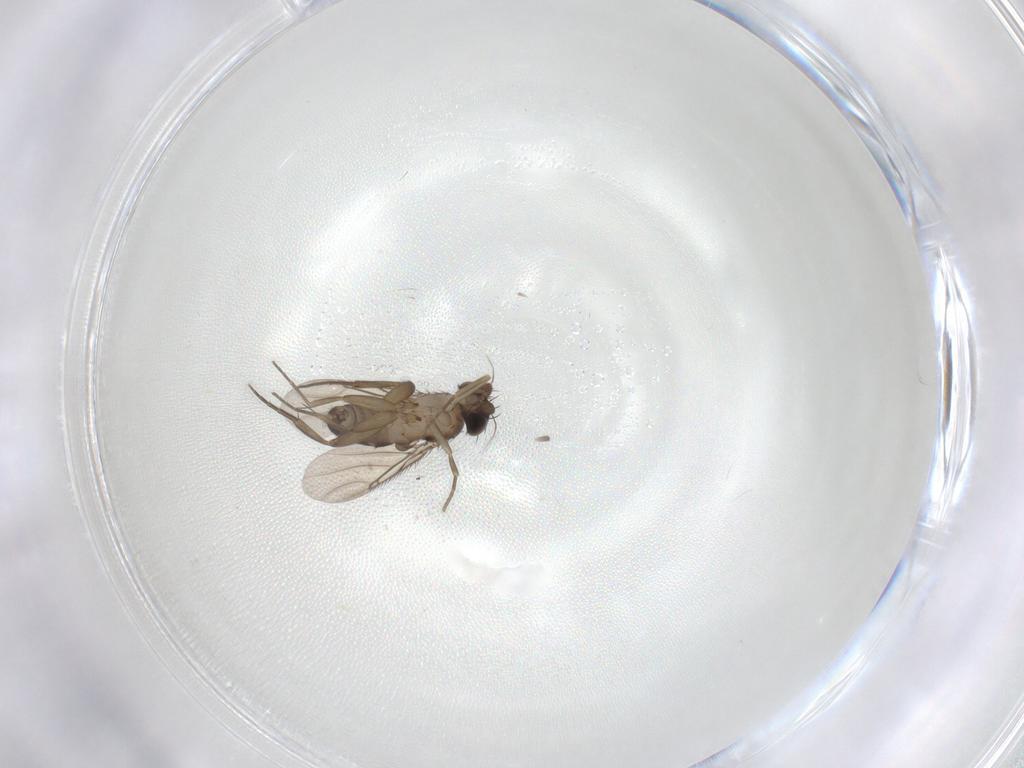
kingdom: Animalia
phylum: Arthropoda
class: Insecta
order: Diptera
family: Phoridae
